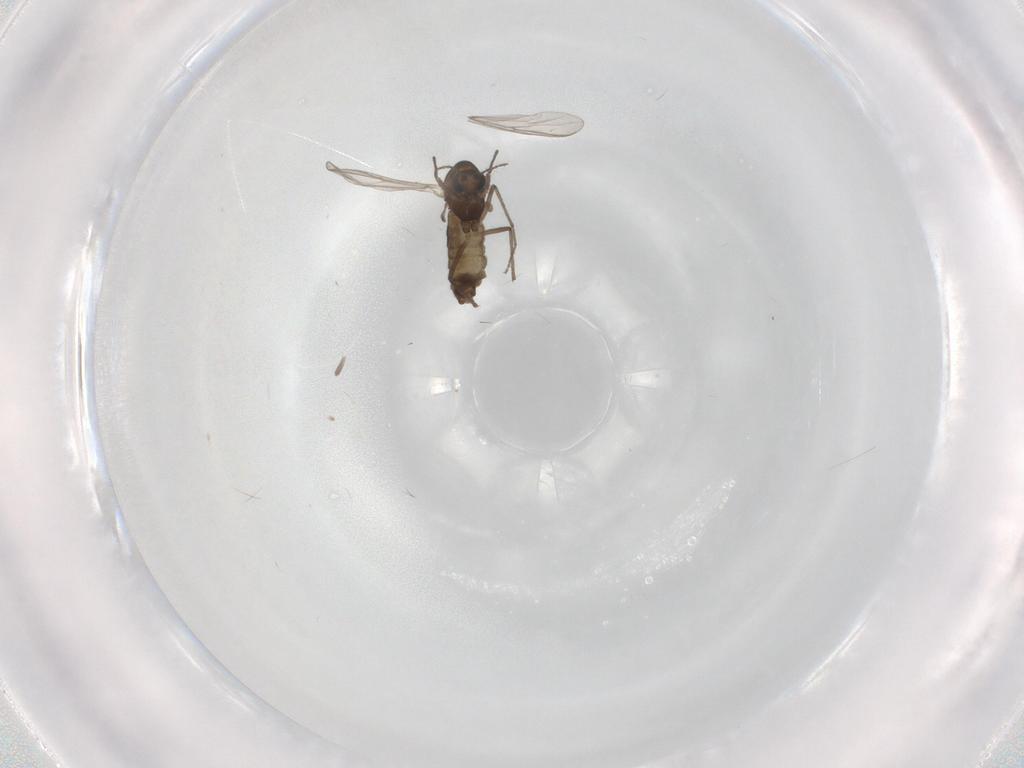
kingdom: Animalia
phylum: Arthropoda
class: Insecta
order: Diptera
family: Chironomidae
